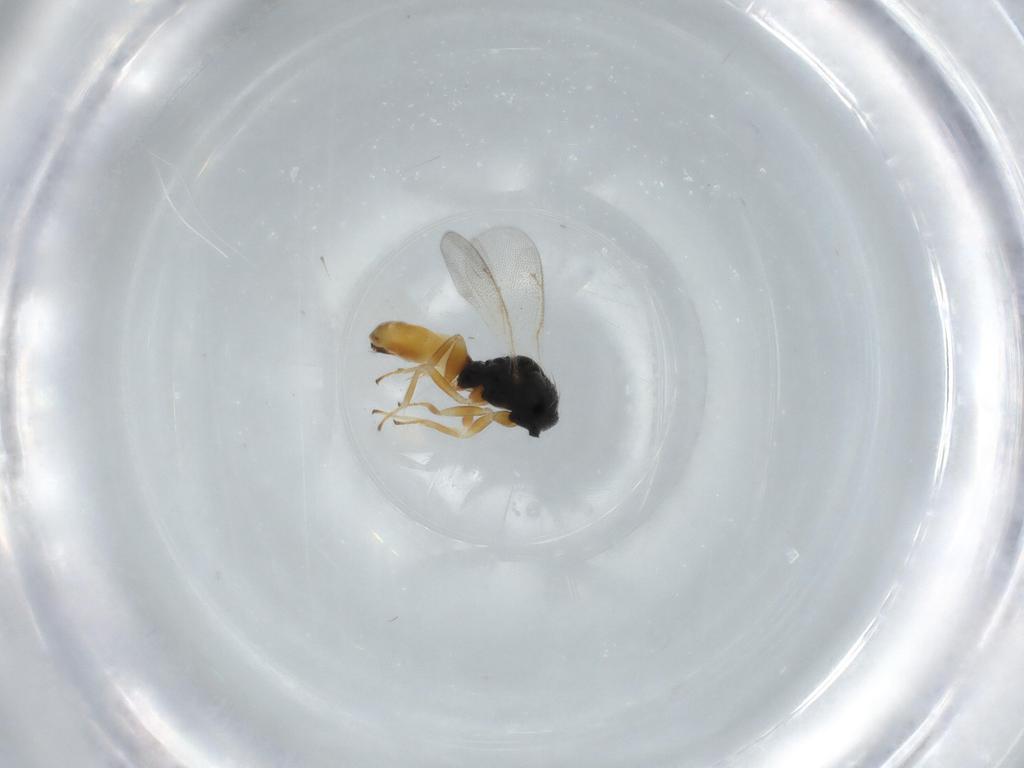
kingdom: Animalia
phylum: Arthropoda
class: Insecta
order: Hymenoptera
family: Eulophidae
